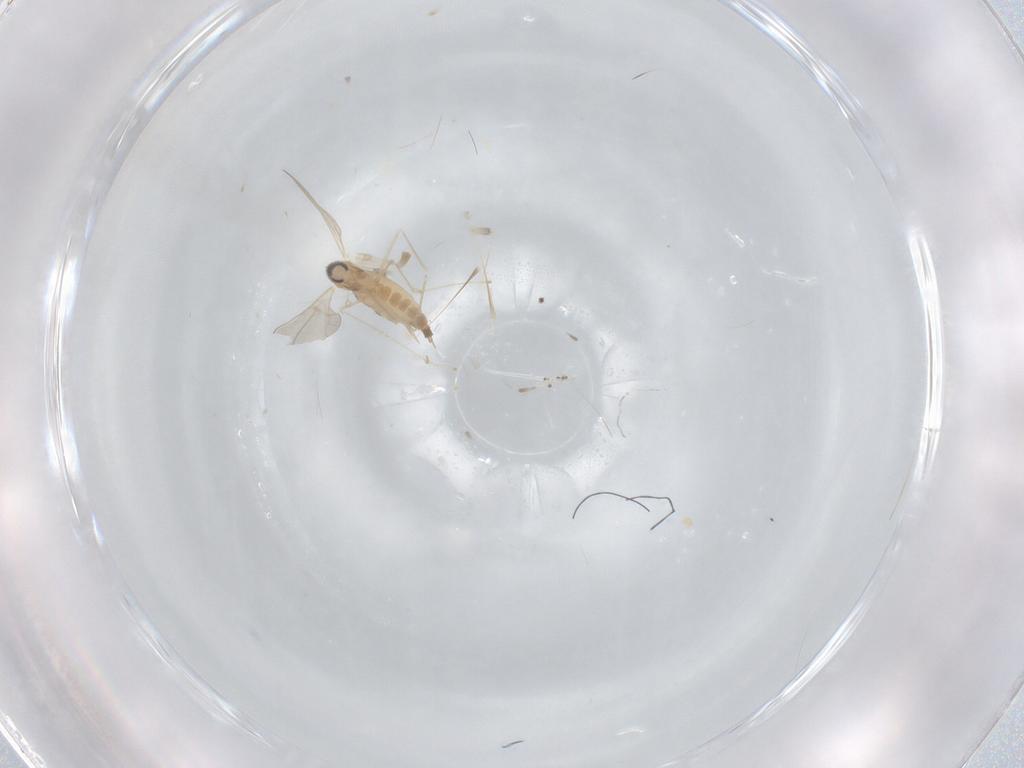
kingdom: Animalia
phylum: Arthropoda
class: Insecta
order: Diptera
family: Cecidomyiidae
